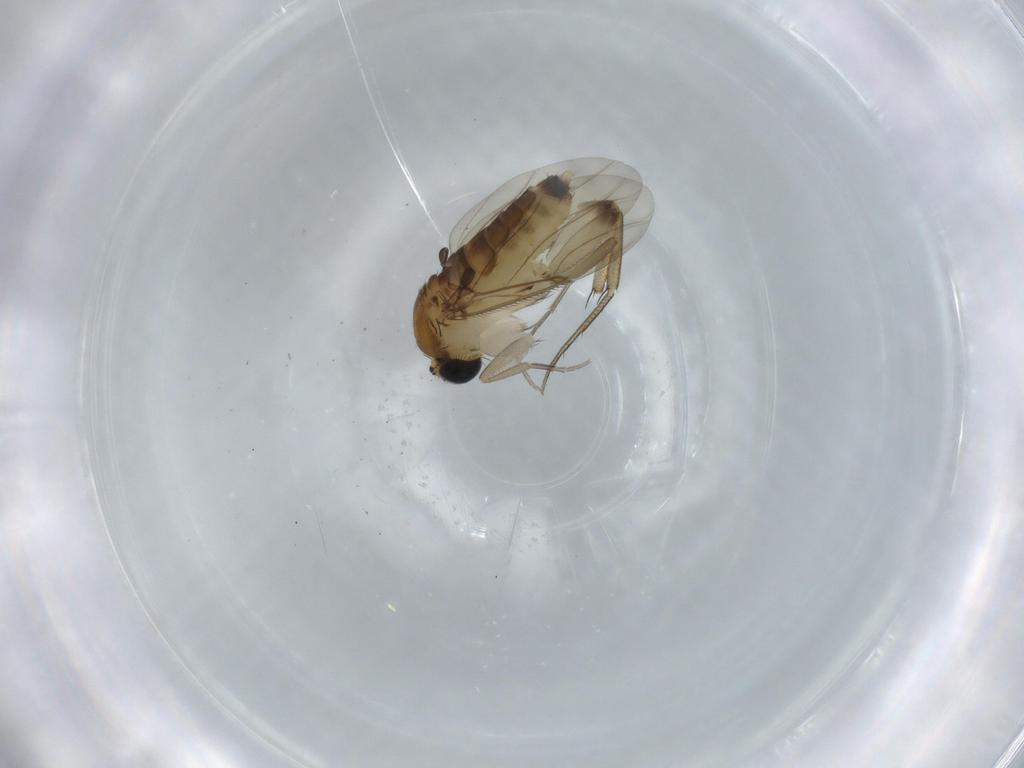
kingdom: Animalia
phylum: Arthropoda
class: Insecta
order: Diptera
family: Phoridae
